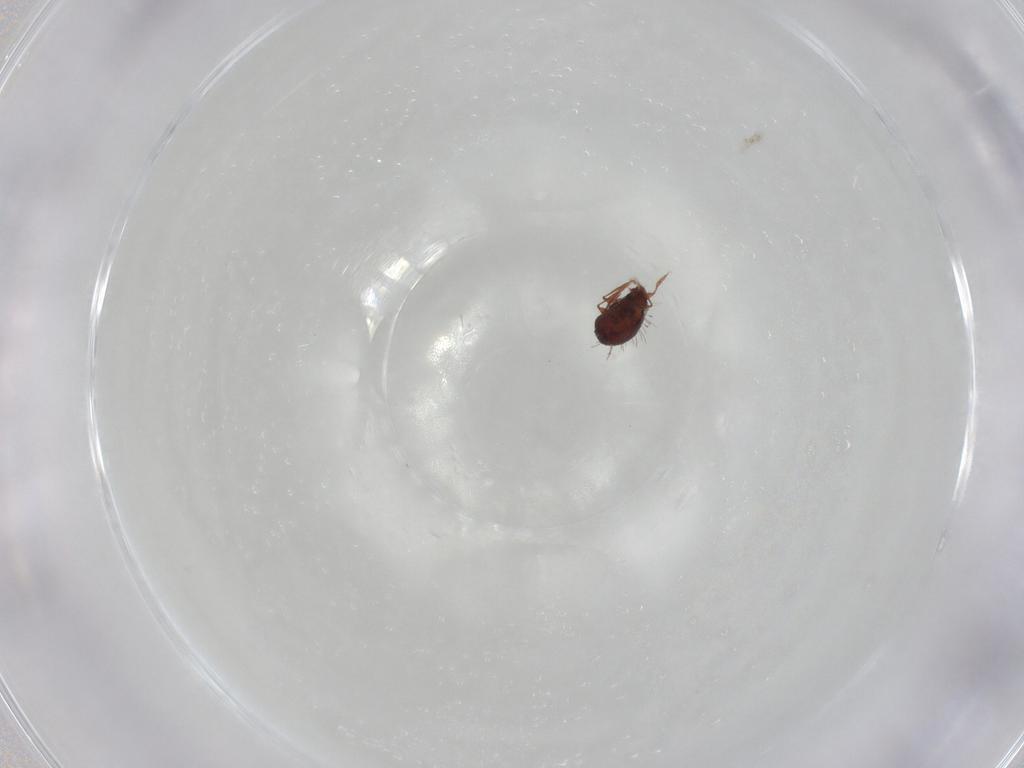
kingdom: Animalia
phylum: Arthropoda
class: Arachnida
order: Sarcoptiformes
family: Caloppiidae
